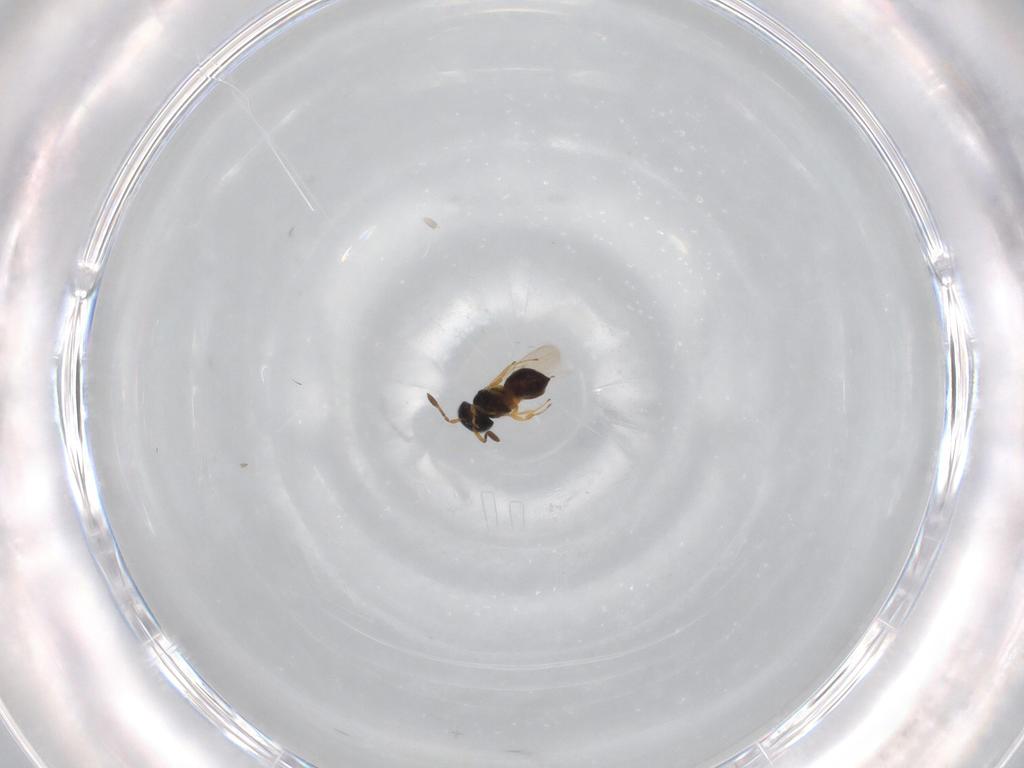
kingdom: Animalia
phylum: Arthropoda
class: Insecta
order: Hymenoptera
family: Scelionidae
